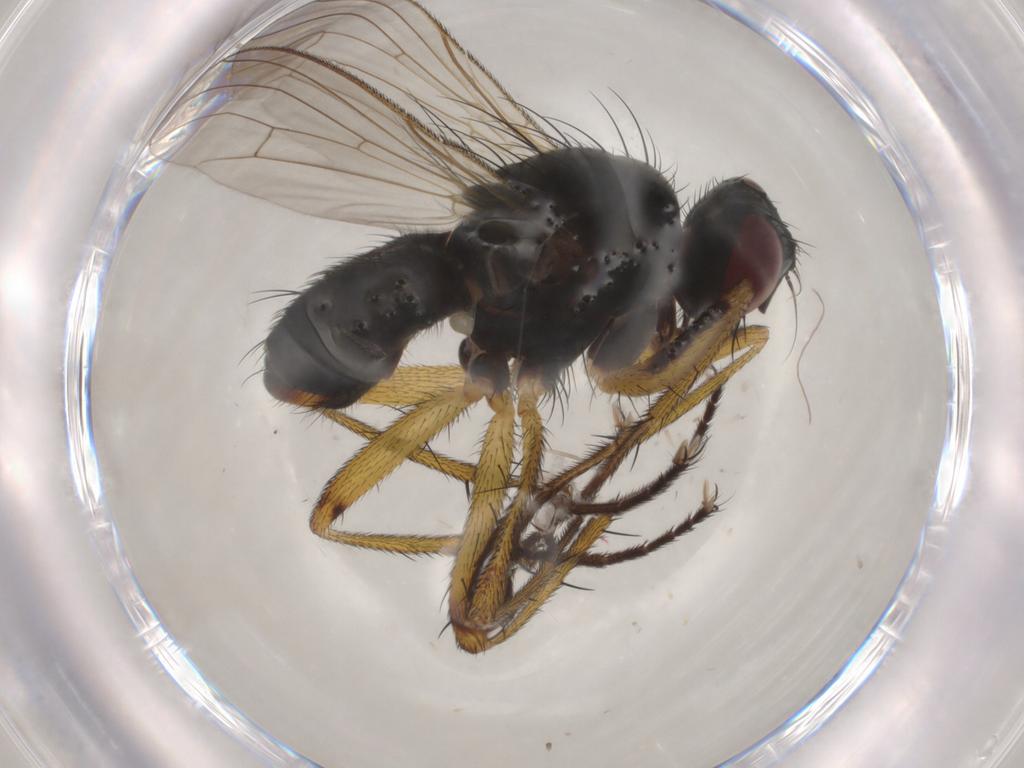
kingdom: Animalia
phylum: Arthropoda
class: Insecta
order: Diptera
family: Muscidae
